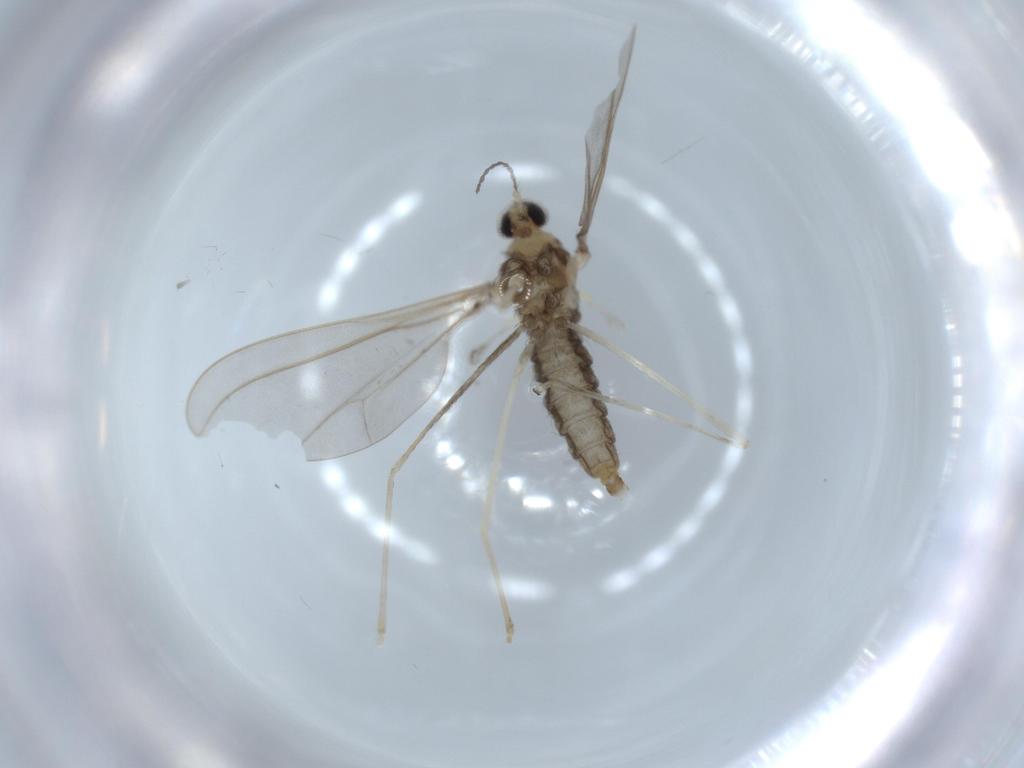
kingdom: Animalia
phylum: Arthropoda
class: Insecta
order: Diptera
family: Cecidomyiidae
